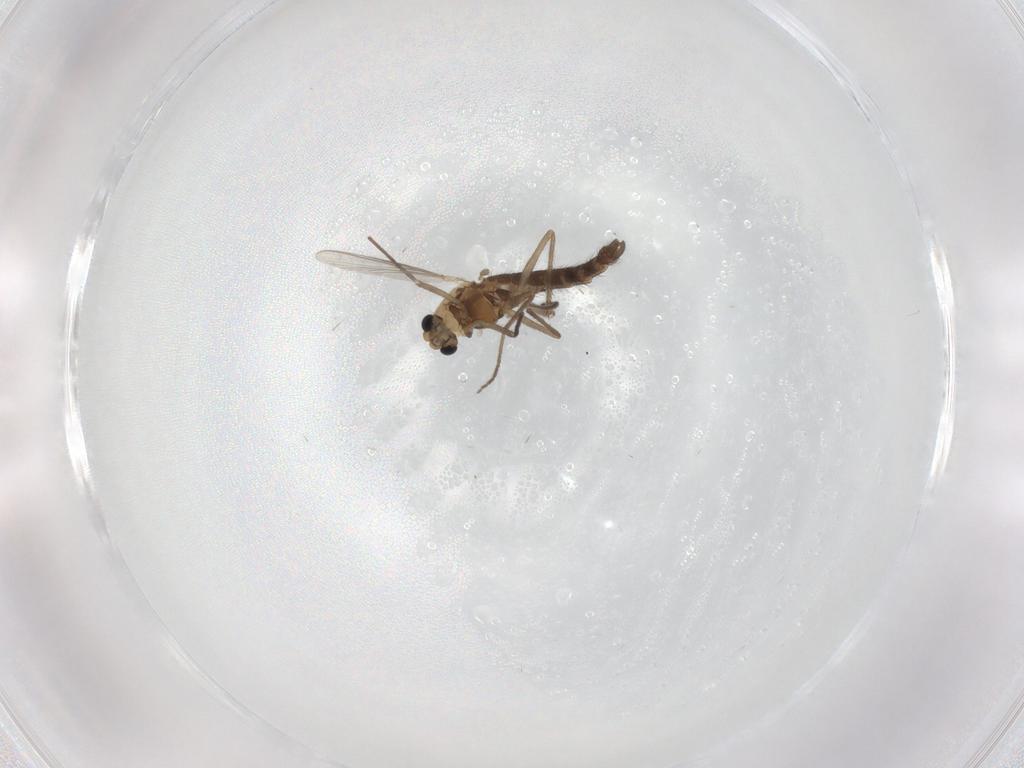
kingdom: Animalia
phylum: Arthropoda
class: Insecta
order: Diptera
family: Chironomidae
